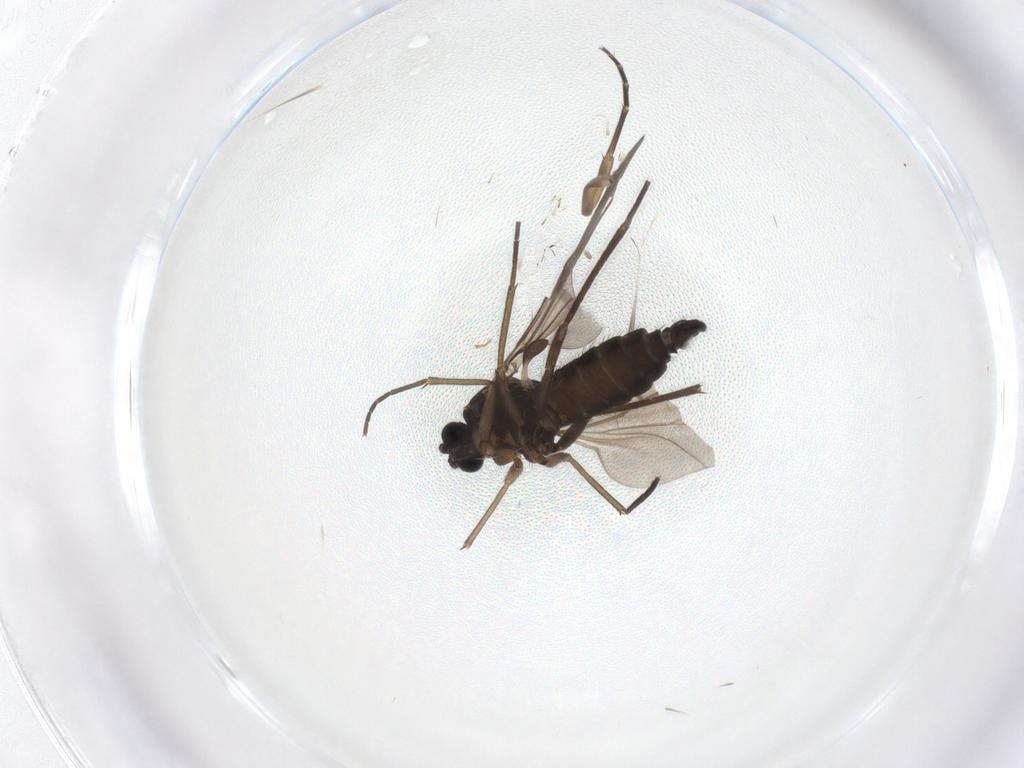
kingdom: Animalia
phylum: Arthropoda
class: Insecta
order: Diptera
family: Sciaridae
